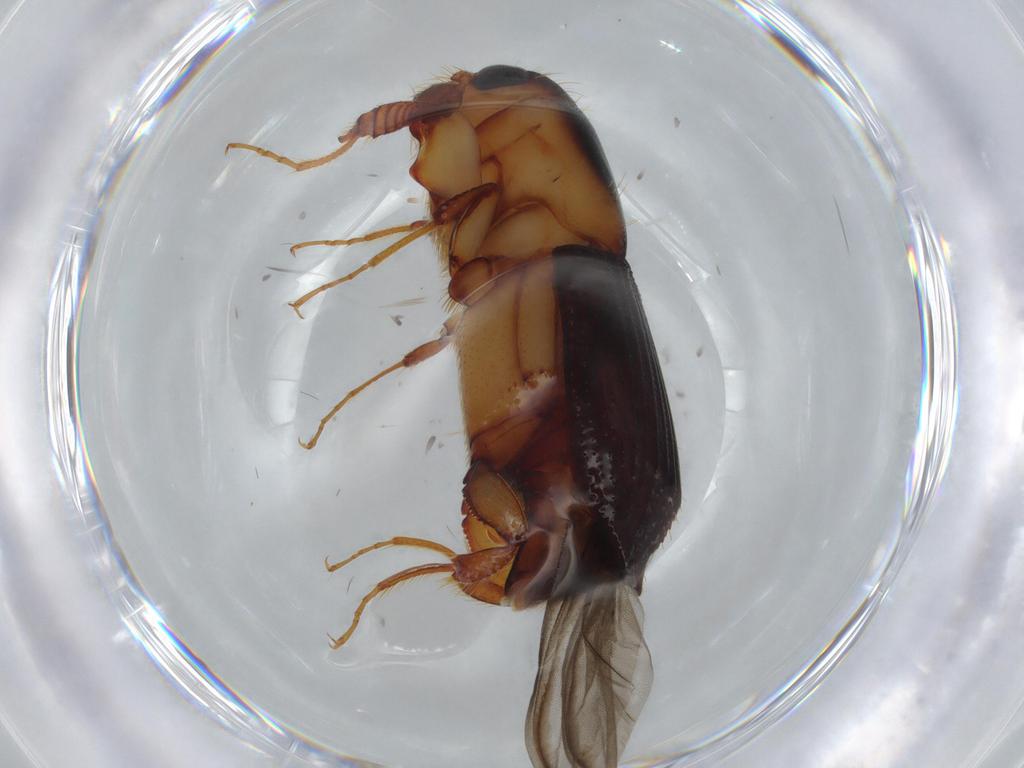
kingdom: Animalia
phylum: Arthropoda
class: Insecta
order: Coleoptera
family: Curculionidae
